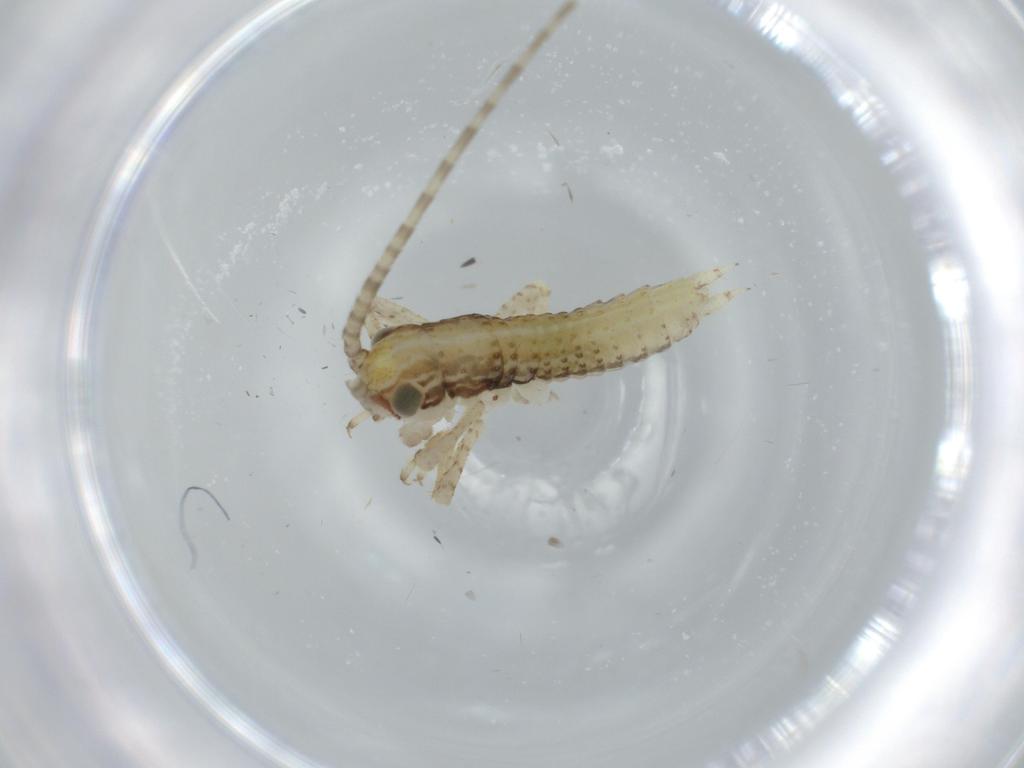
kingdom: Animalia
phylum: Arthropoda
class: Insecta
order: Orthoptera
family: Gryllidae
